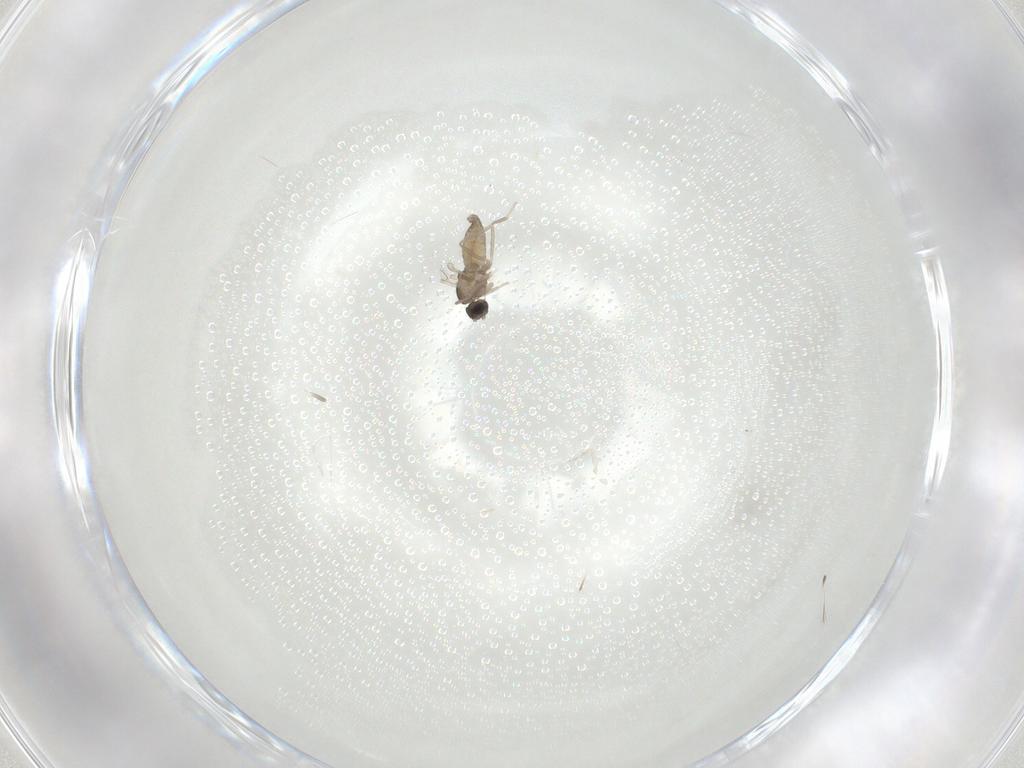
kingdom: Animalia
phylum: Arthropoda
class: Insecta
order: Diptera
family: Cecidomyiidae
